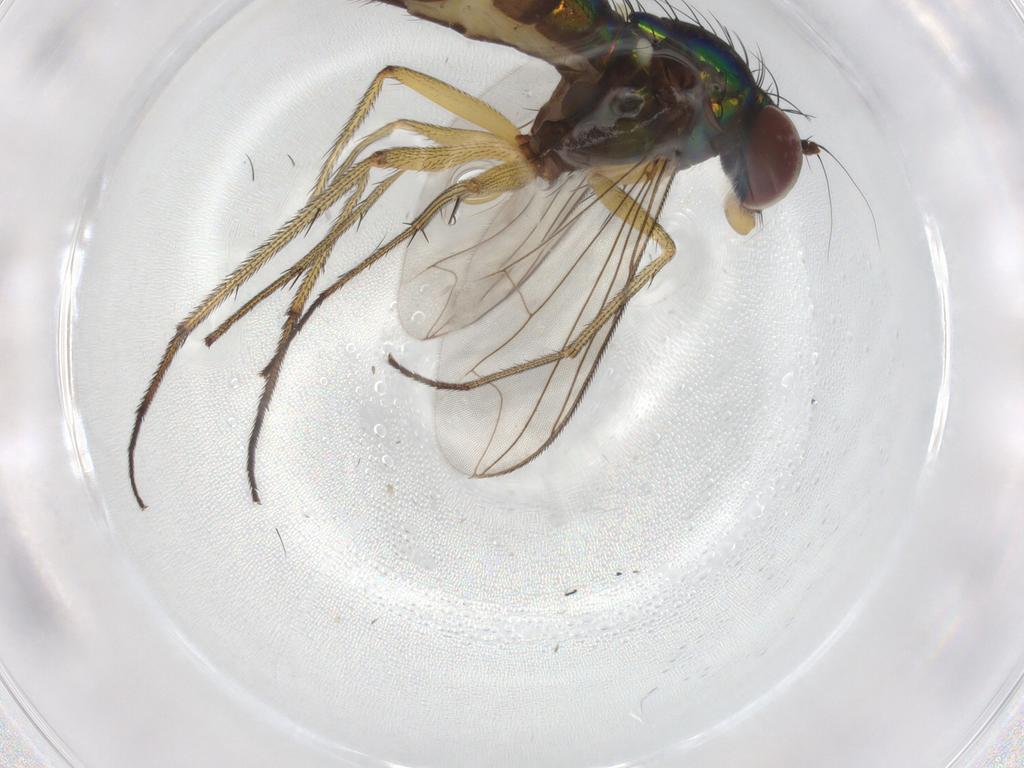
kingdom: Animalia
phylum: Arthropoda
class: Insecta
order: Diptera
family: Dolichopodidae
